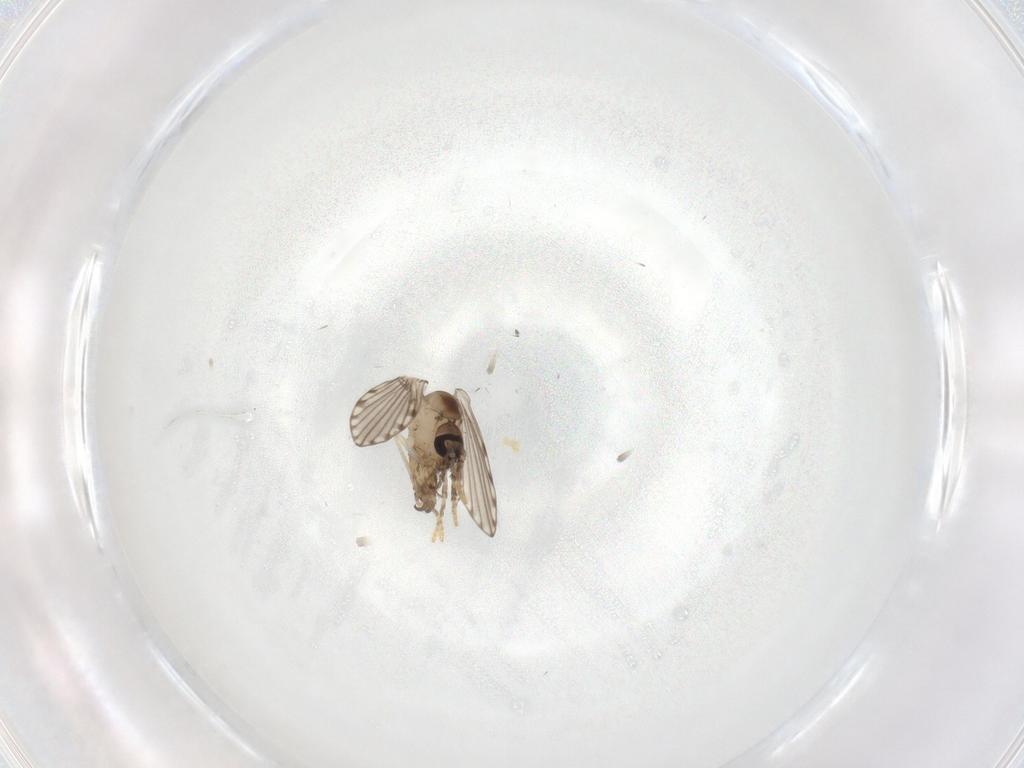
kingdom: Animalia
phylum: Arthropoda
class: Insecta
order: Diptera
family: Psychodidae
